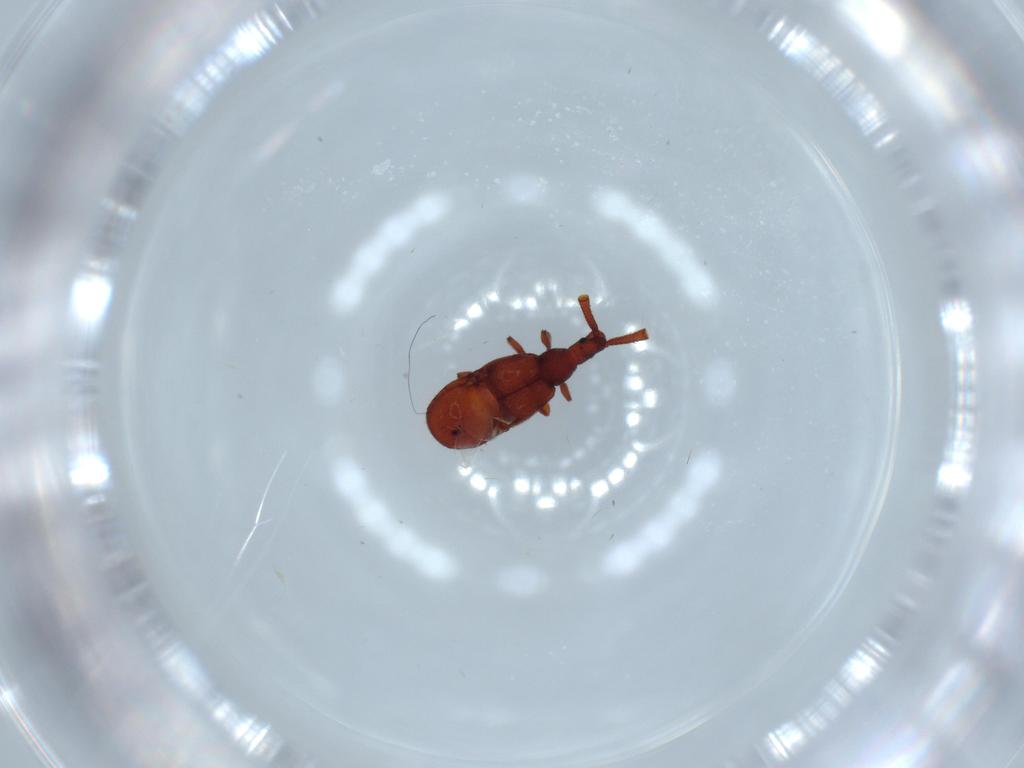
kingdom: Animalia
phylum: Arthropoda
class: Insecta
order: Coleoptera
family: Staphylinidae
